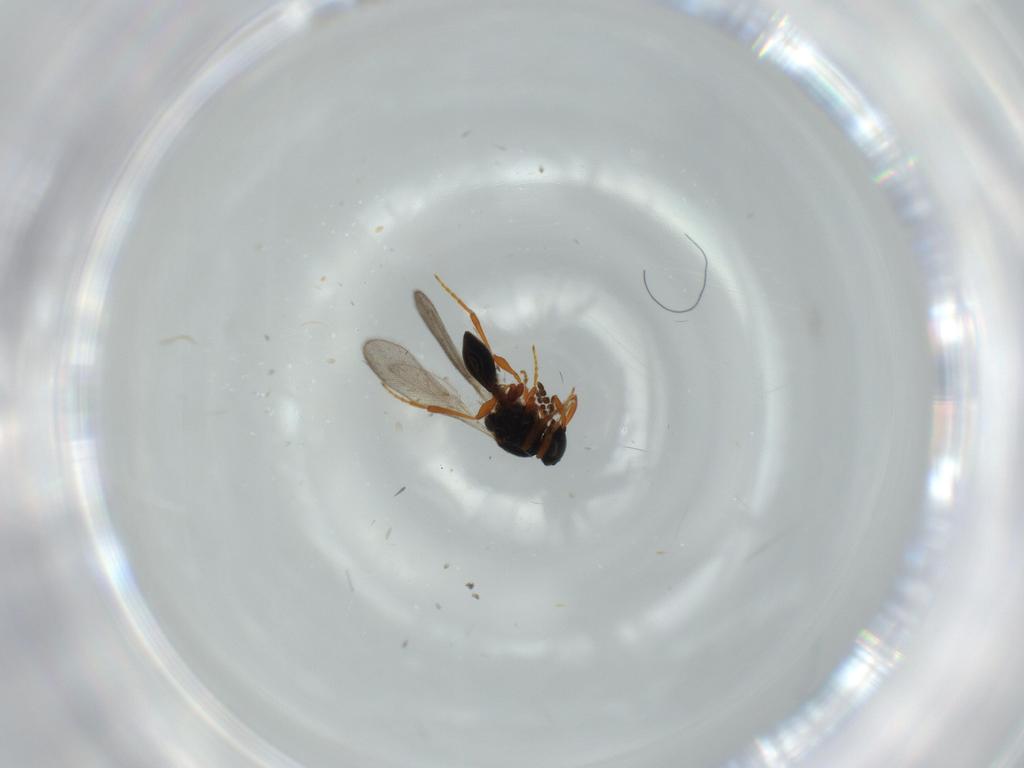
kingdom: Animalia
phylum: Arthropoda
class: Insecta
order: Hymenoptera
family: Platygastridae
